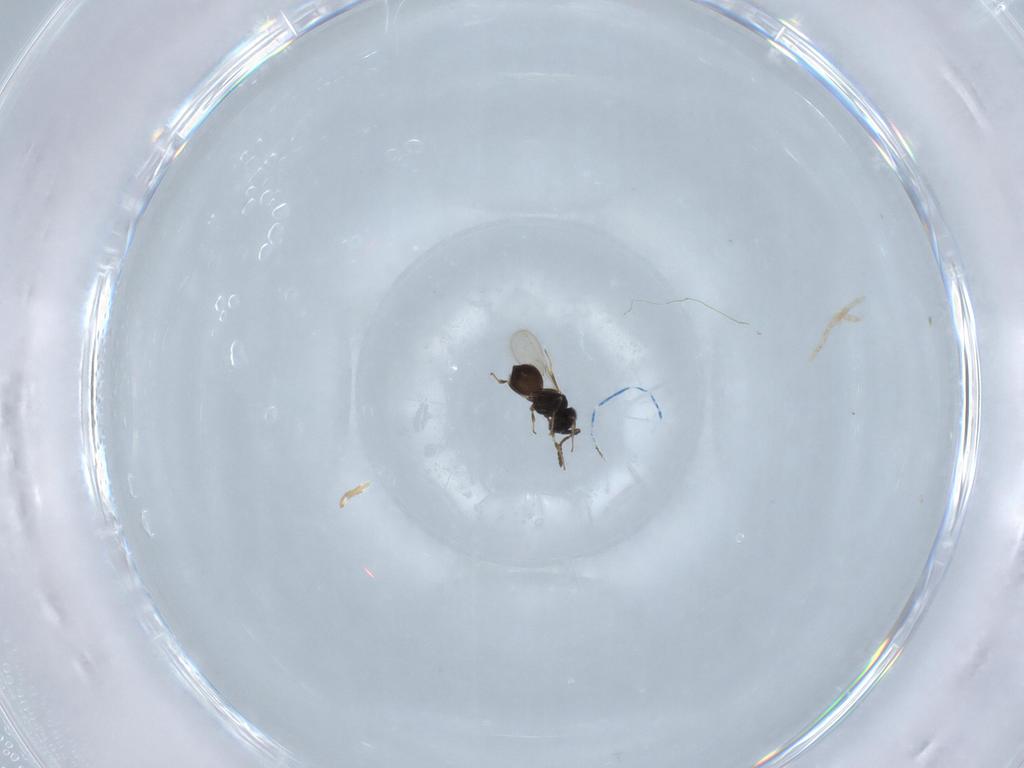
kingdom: Animalia
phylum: Arthropoda
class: Insecta
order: Hymenoptera
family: Scelionidae
